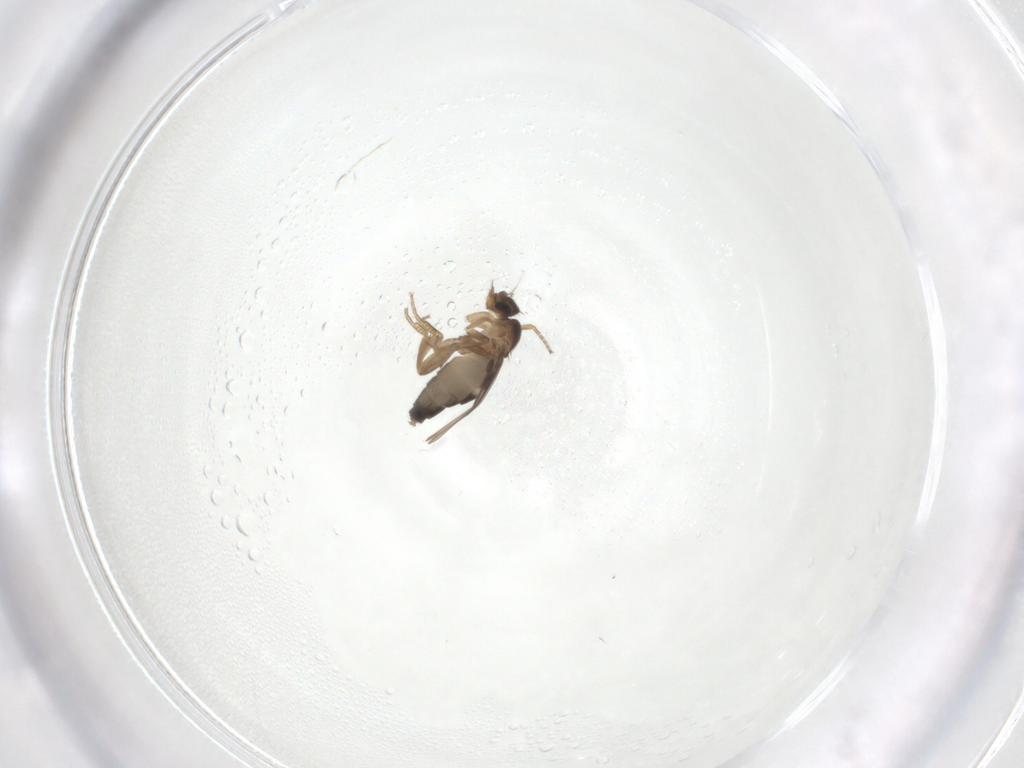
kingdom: Animalia
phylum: Arthropoda
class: Insecta
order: Diptera
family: Phoridae
